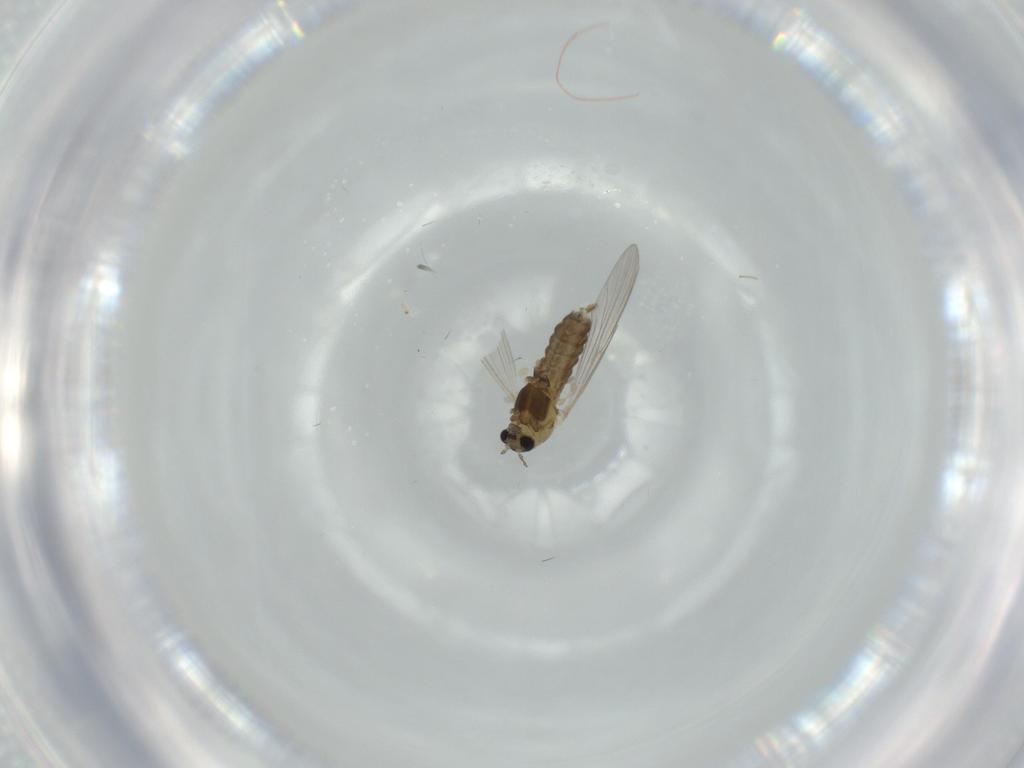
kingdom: Animalia
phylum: Arthropoda
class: Insecta
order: Diptera
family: Chironomidae
